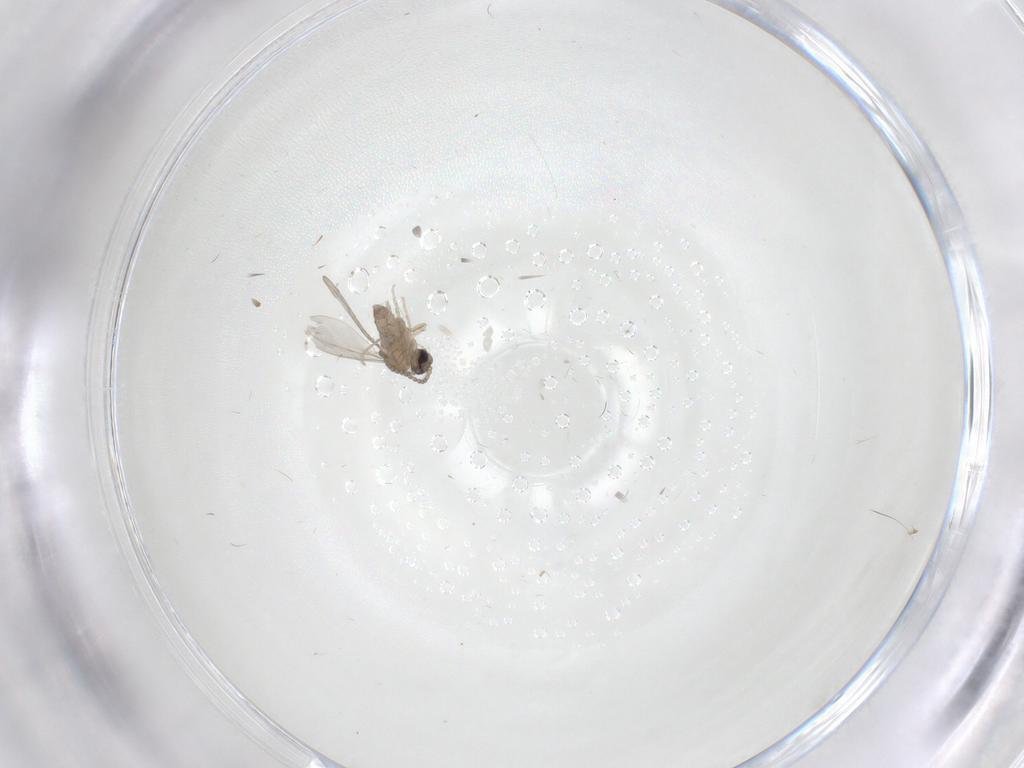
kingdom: Animalia
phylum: Arthropoda
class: Insecta
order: Diptera
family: Cecidomyiidae
